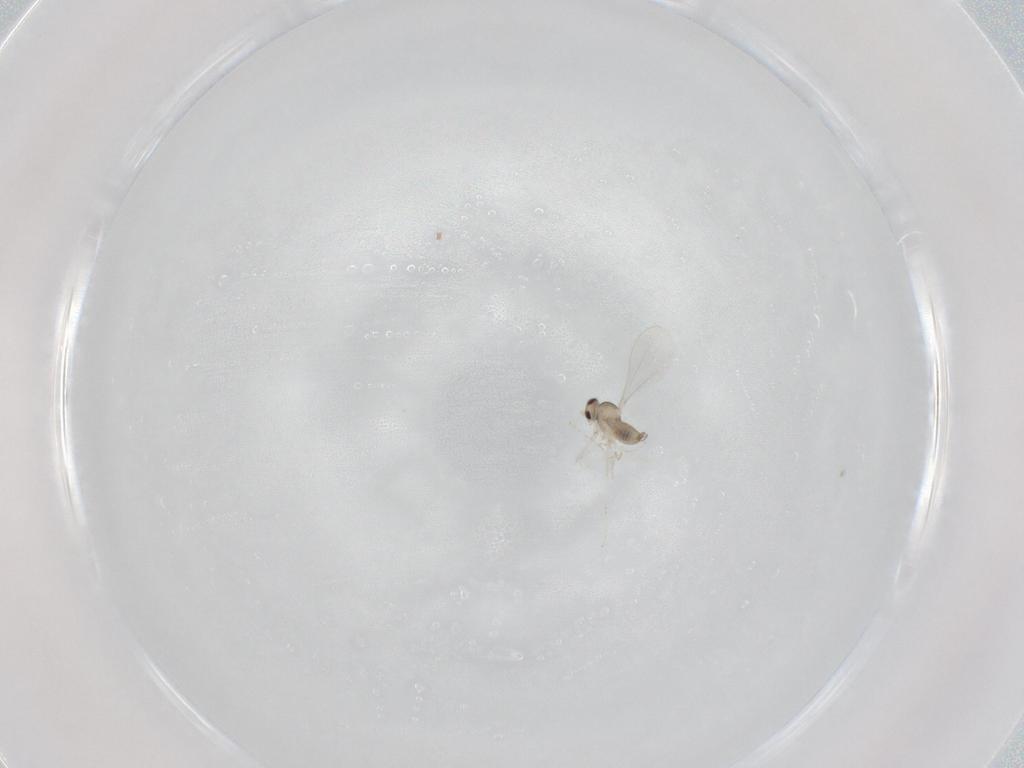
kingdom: Animalia
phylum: Arthropoda
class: Insecta
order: Diptera
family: Cecidomyiidae
